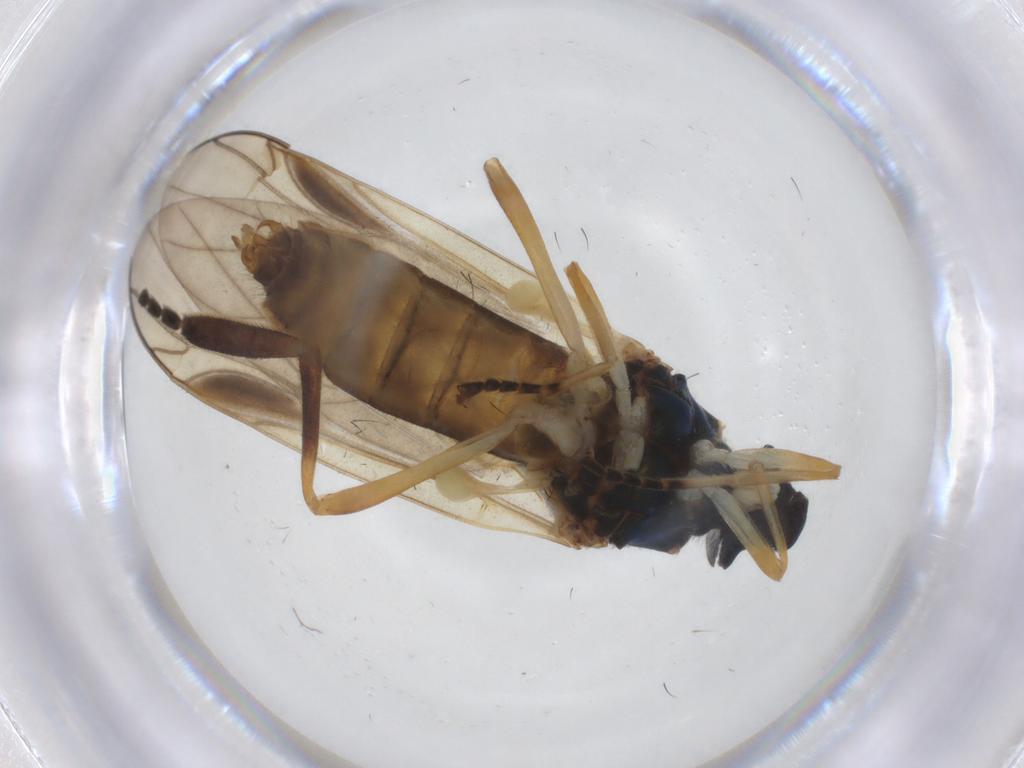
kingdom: Animalia
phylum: Arthropoda
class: Insecta
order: Diptera
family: Stratiomyidae
